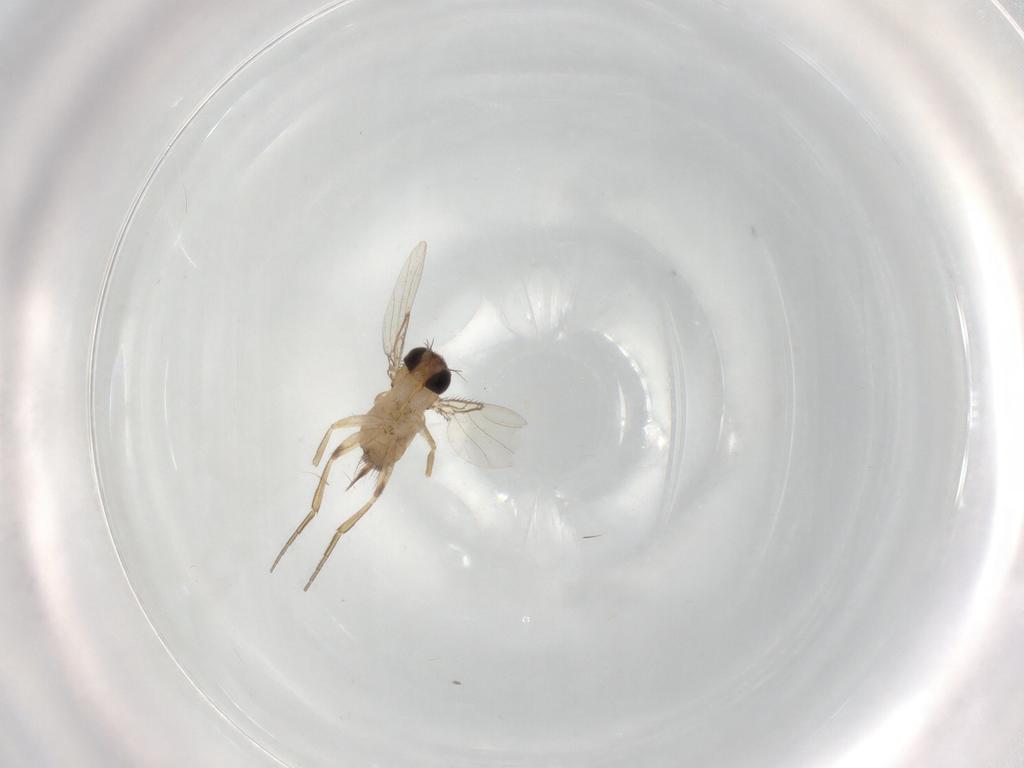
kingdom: Animalia
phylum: Arthropoda
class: Insecta
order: Diptera
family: Phoridae
